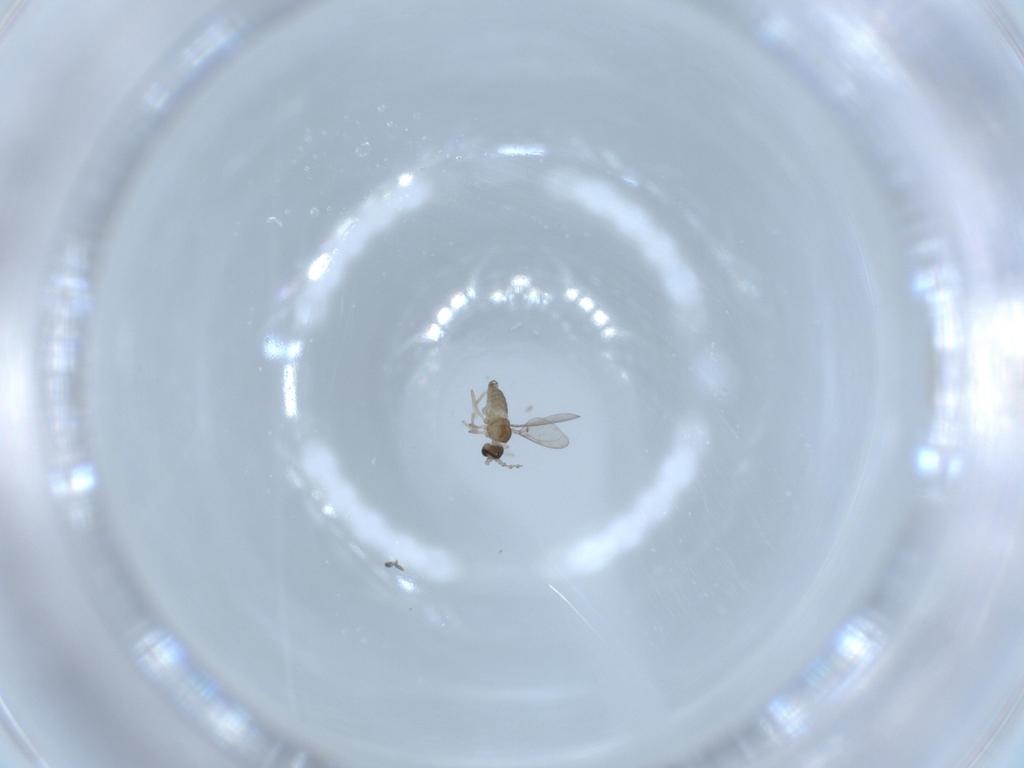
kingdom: Animalia
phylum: Arthropoda
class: Insecta
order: Diptera
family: Cecidomyiidae
